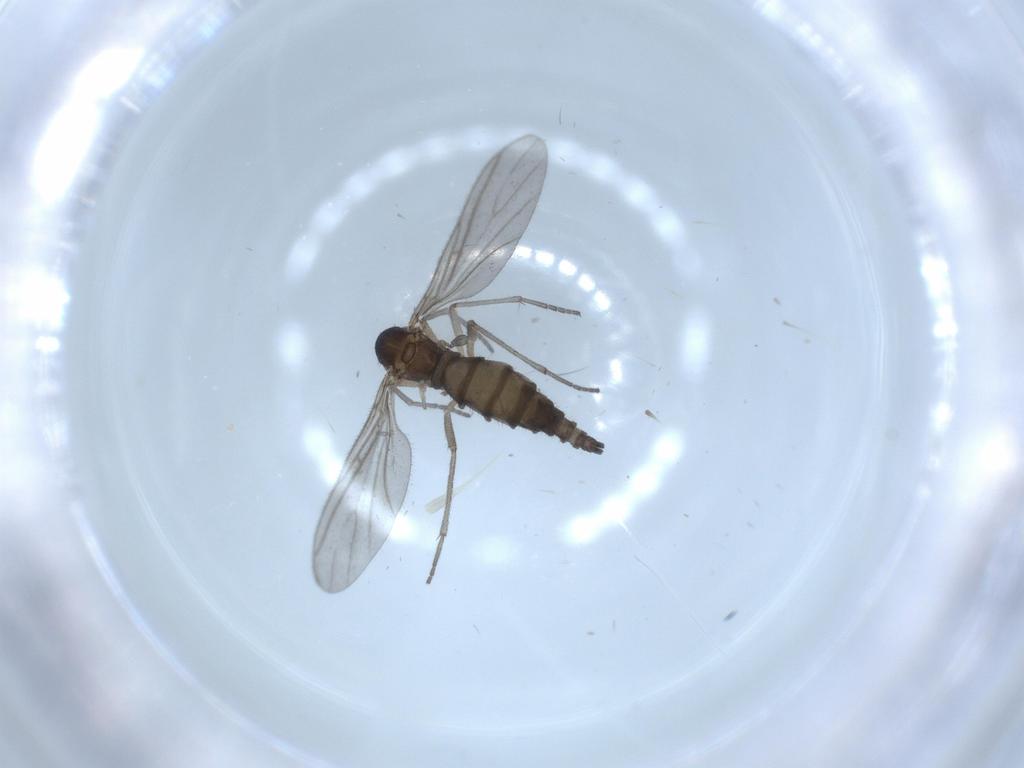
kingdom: Animalia
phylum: Arthropoda
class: Insecta
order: Diptera
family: Sciaridae
